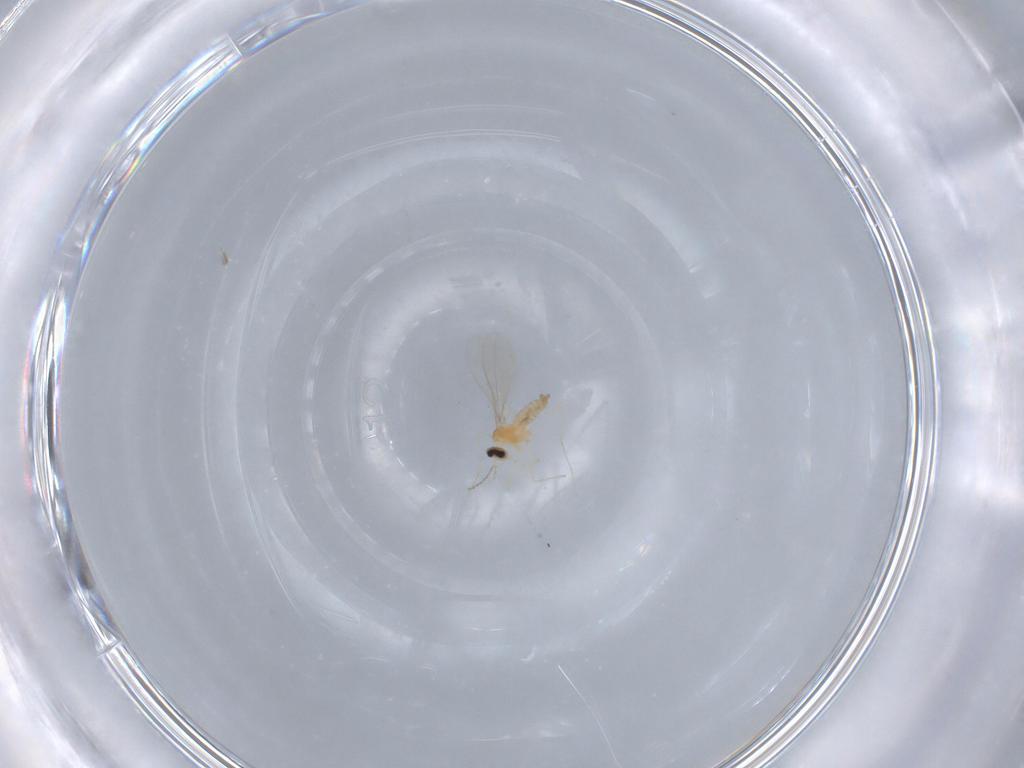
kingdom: Animalia
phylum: Arthropoda
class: Insecta
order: Diptera
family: Cecidomyiidae
